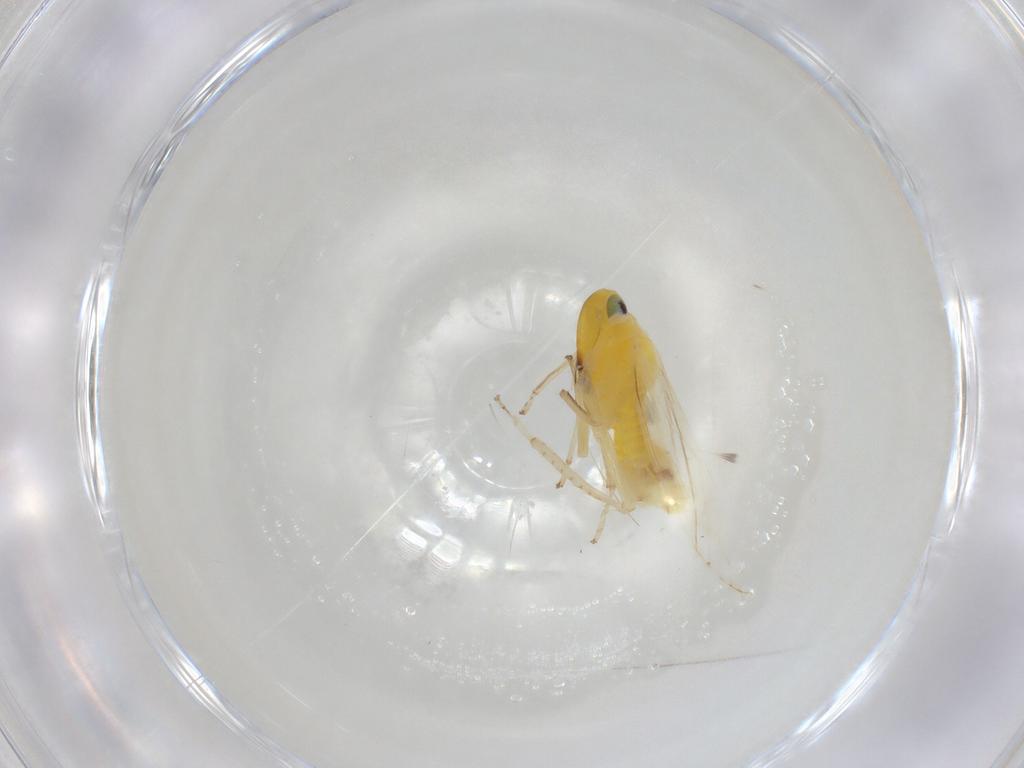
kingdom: Animalia
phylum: Arthropoda
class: Insecta
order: Hemiptera
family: Cicadellidae
